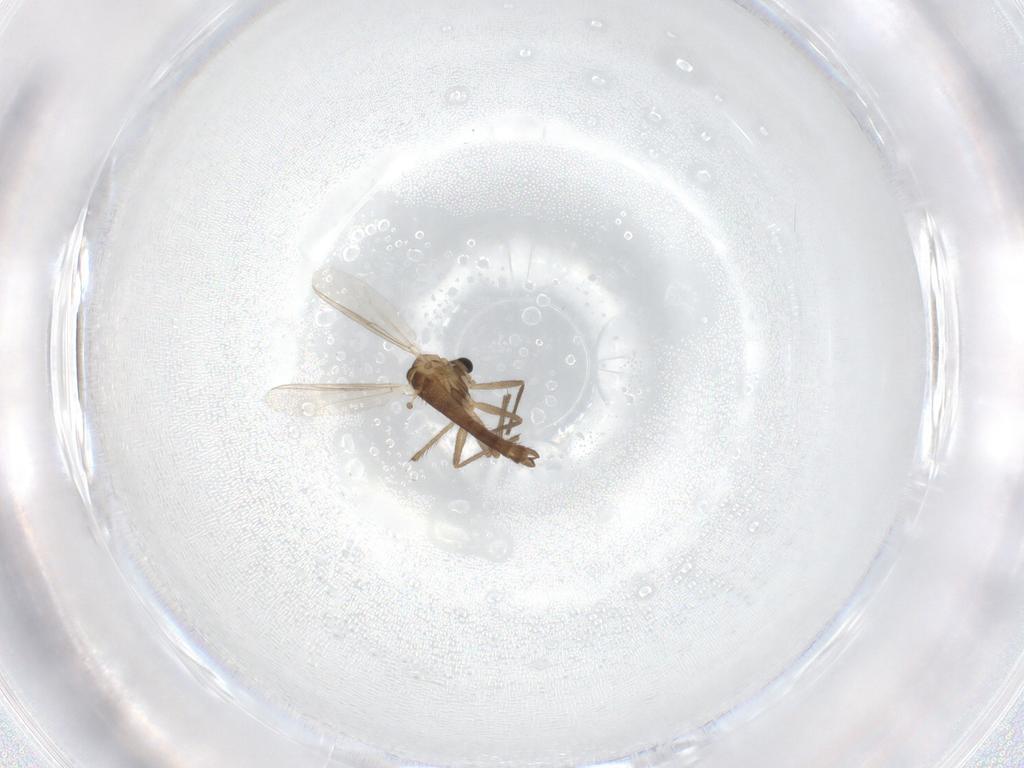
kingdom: Animalia
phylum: Arthropoda
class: Insecta
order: Diptera
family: Chironomidae
